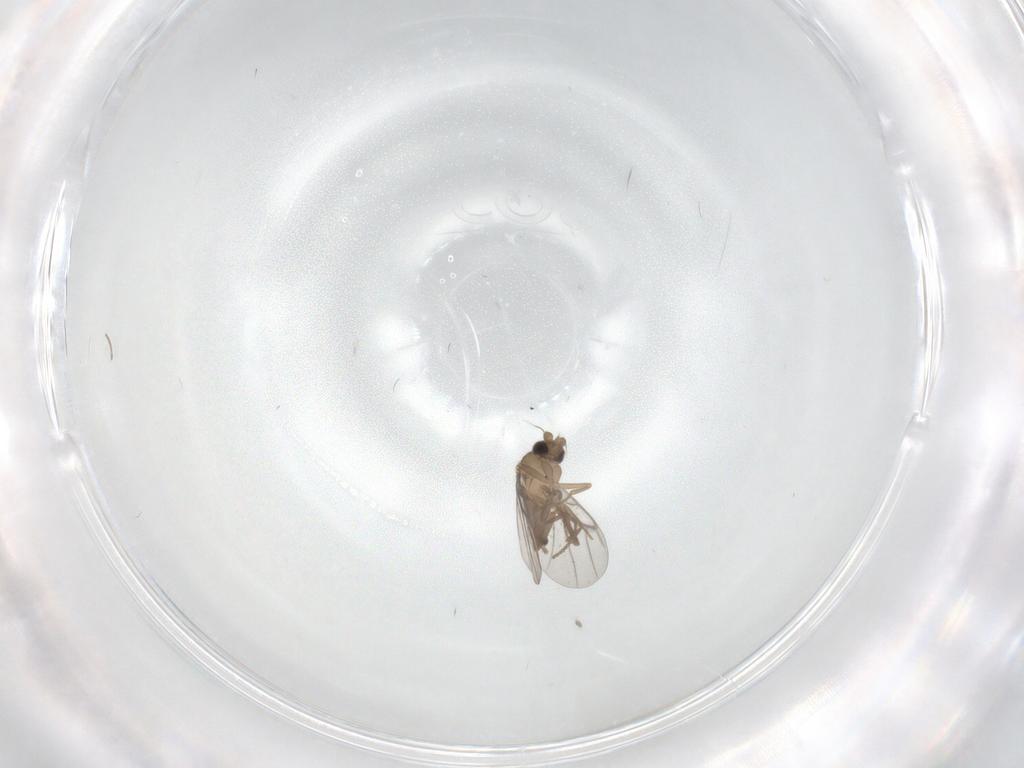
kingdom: Animalia
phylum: Arthropoda
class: Insecta
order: Diptera
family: Cecidomyiidae
